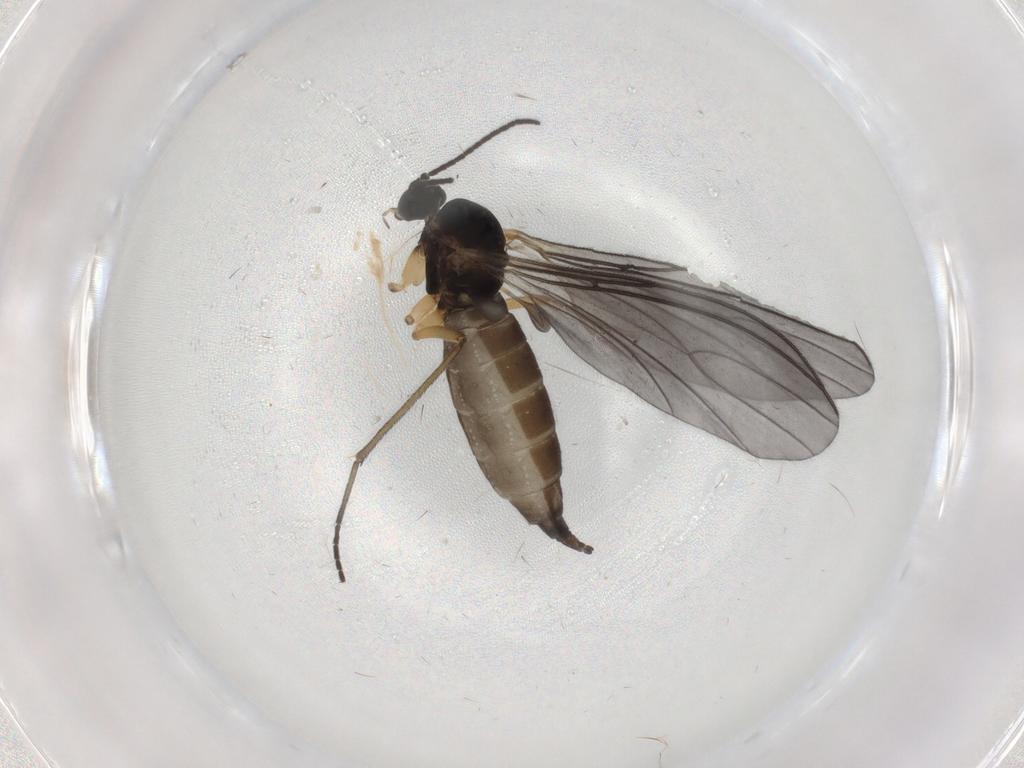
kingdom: Animalia
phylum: Arthropoda
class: Insecta
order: Diptera
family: Sciaridae
